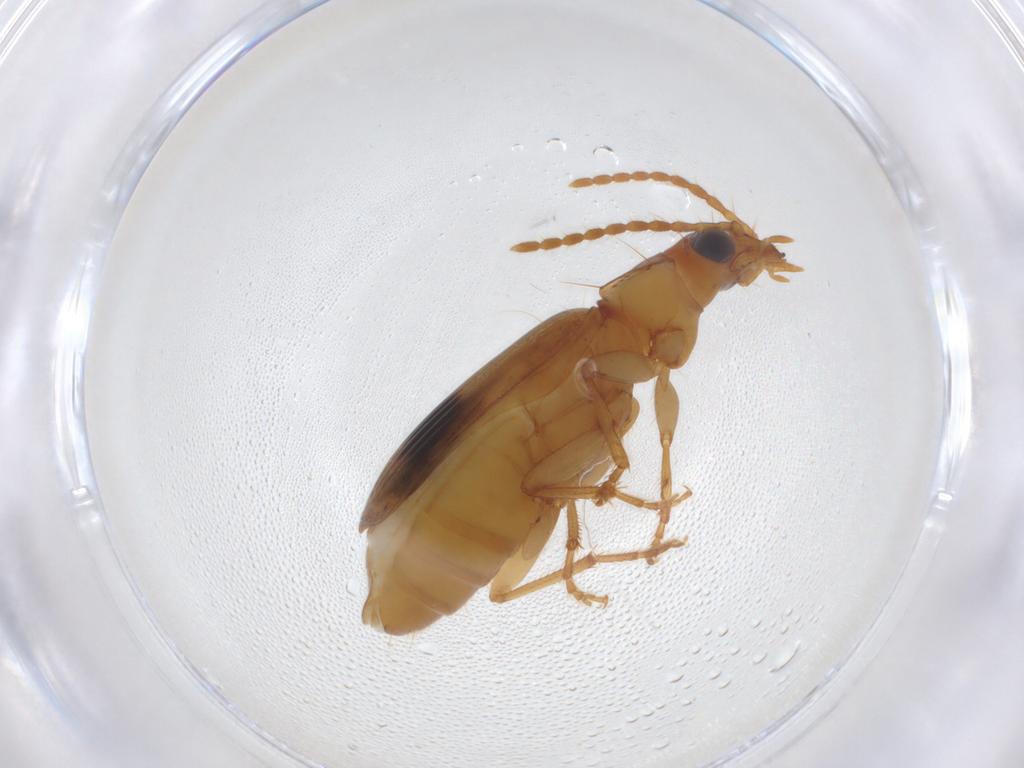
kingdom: Animalia
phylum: Arthropoda
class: Insecta
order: Coleoptera
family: Carabidae
